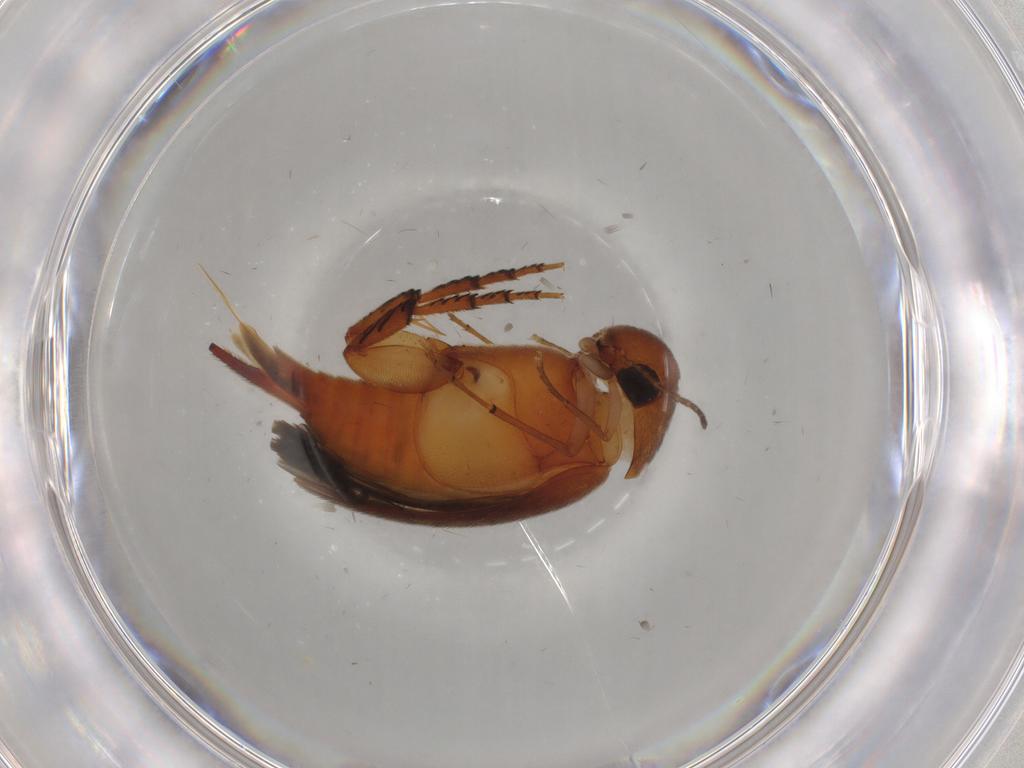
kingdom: Animalia
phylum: Arthropoda
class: Insecta
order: Coleoptera
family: Mordellidae
